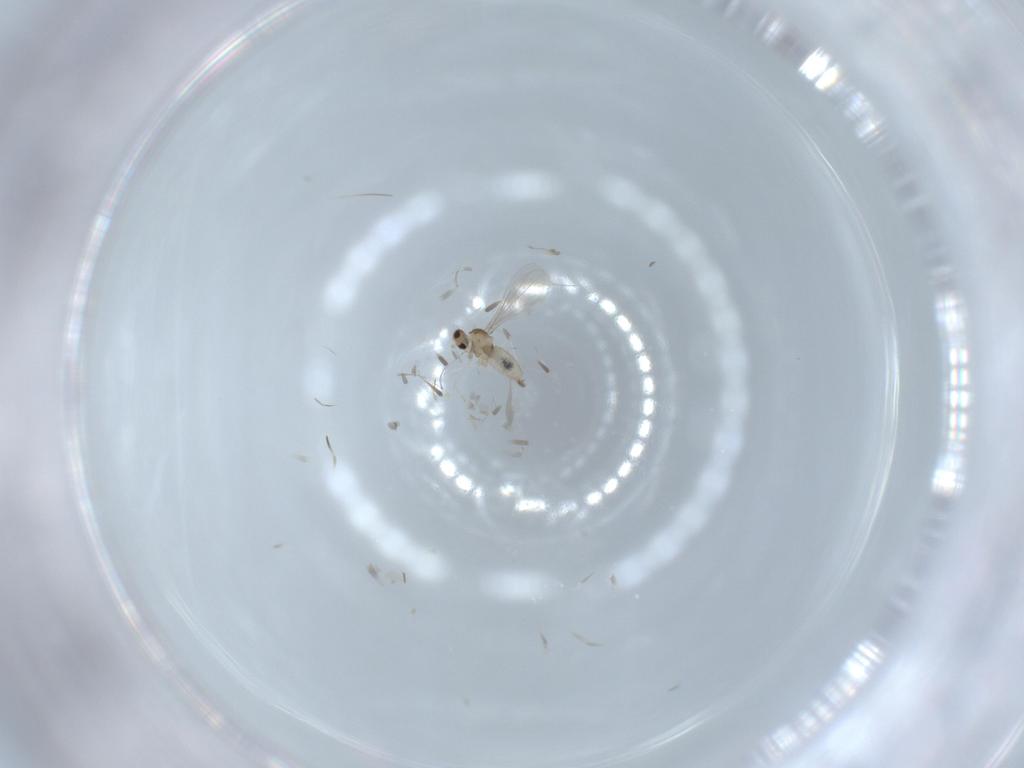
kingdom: Animalia
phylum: Arthropoda
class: Insecta
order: Diptera
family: Cecidomyiidae
